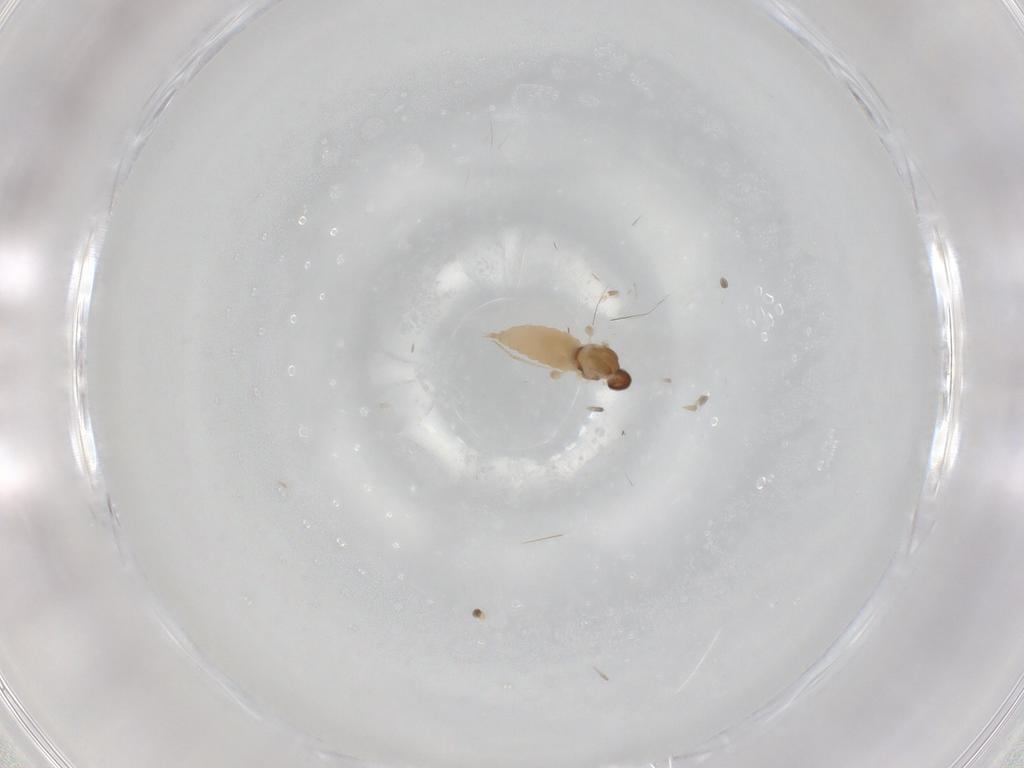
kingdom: Animalia
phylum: Arthropoda
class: Insecta
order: Diptera
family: Cecidomyiidae
